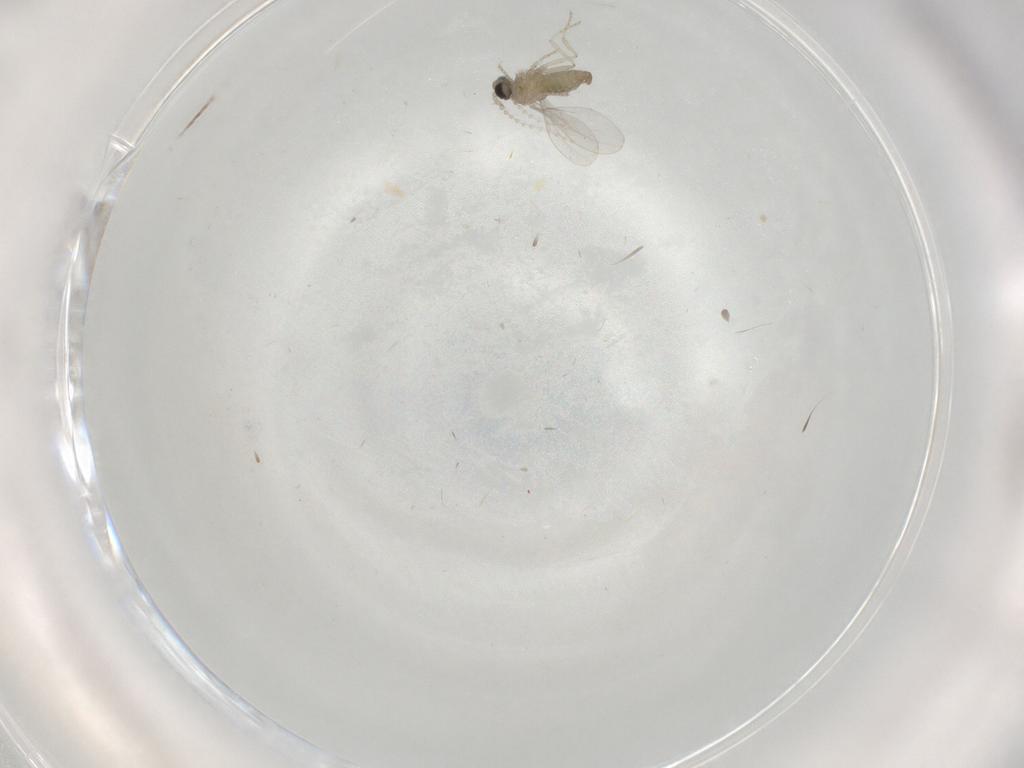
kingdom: Animalia
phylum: Arthropoda
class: Insecta
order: Diptera
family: Cecidomyiidae
